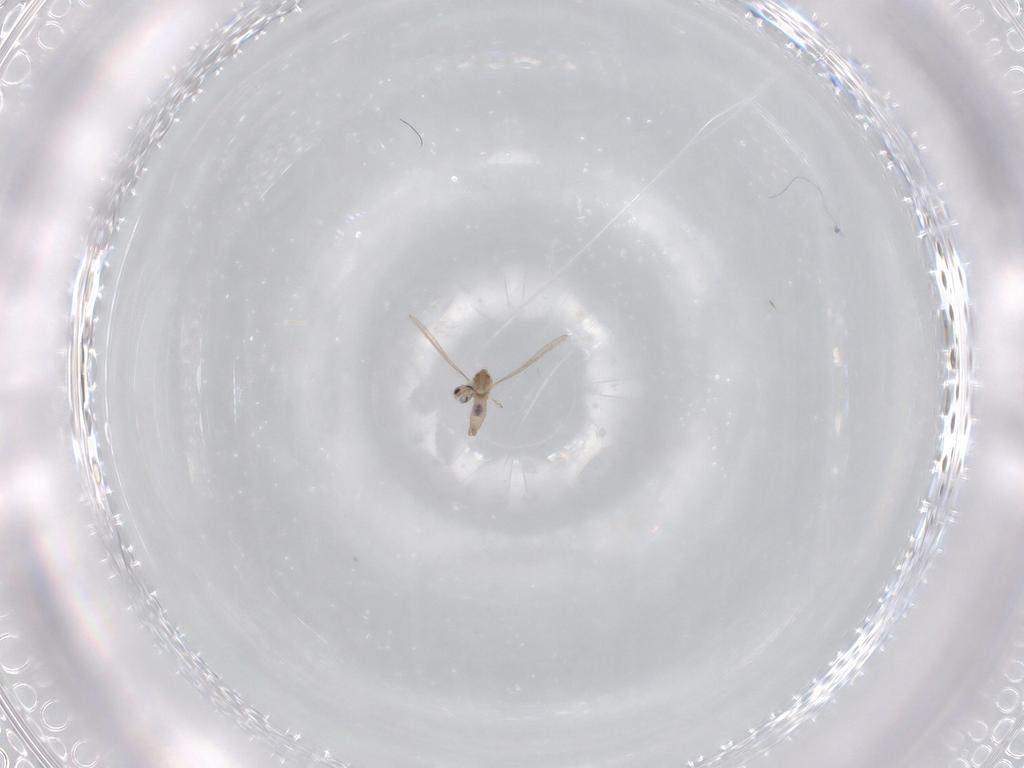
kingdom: Animalia
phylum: Arthropoda
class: Insecta
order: Diptera
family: Cecidomyiidae
